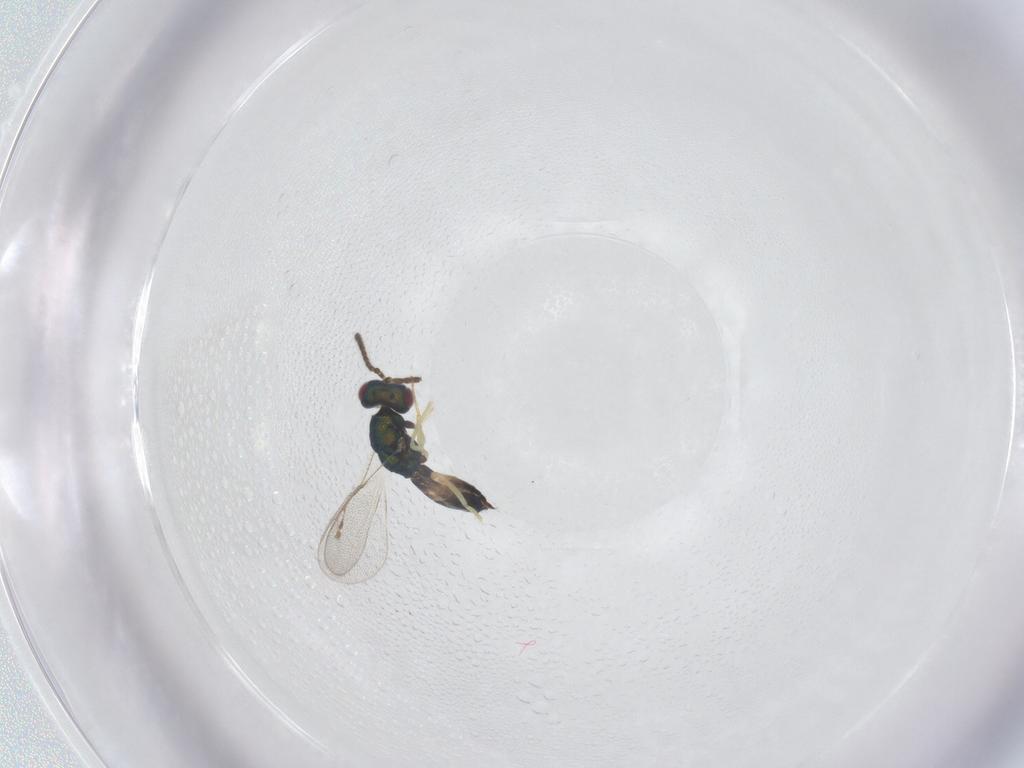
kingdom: Animalia
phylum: Arthropoda
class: Insecta
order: Hymenoptera
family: Pteromalidae
